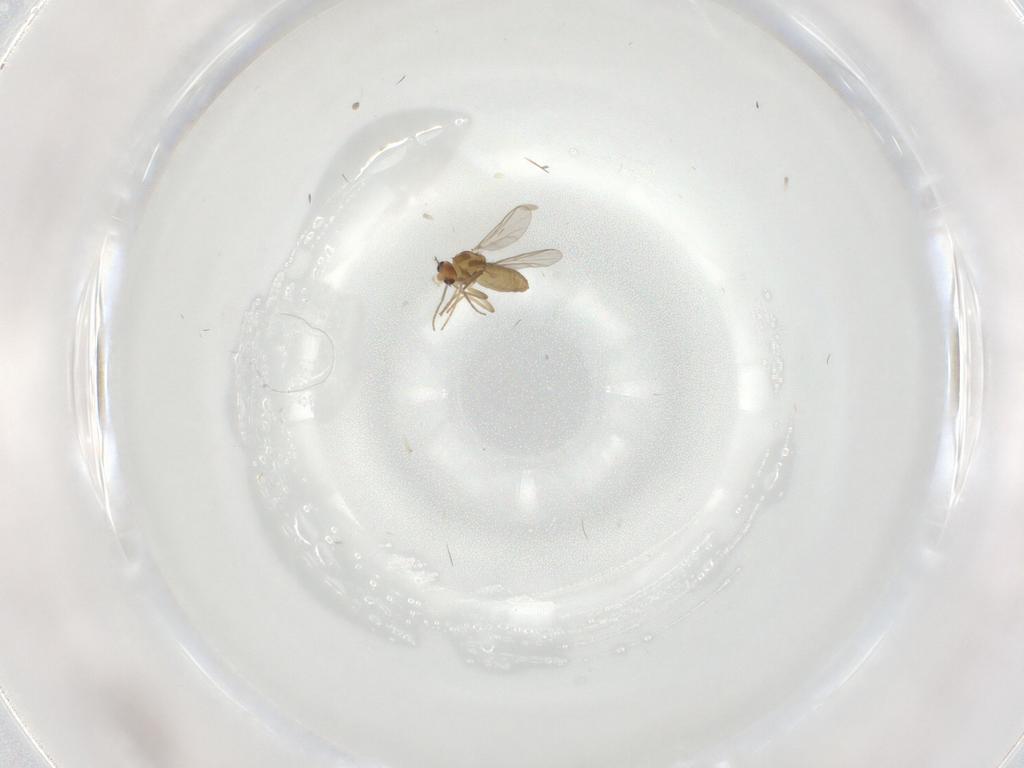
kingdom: Animalia
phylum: Arthropoda
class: Insecta
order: Diptera
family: Chironomidae
